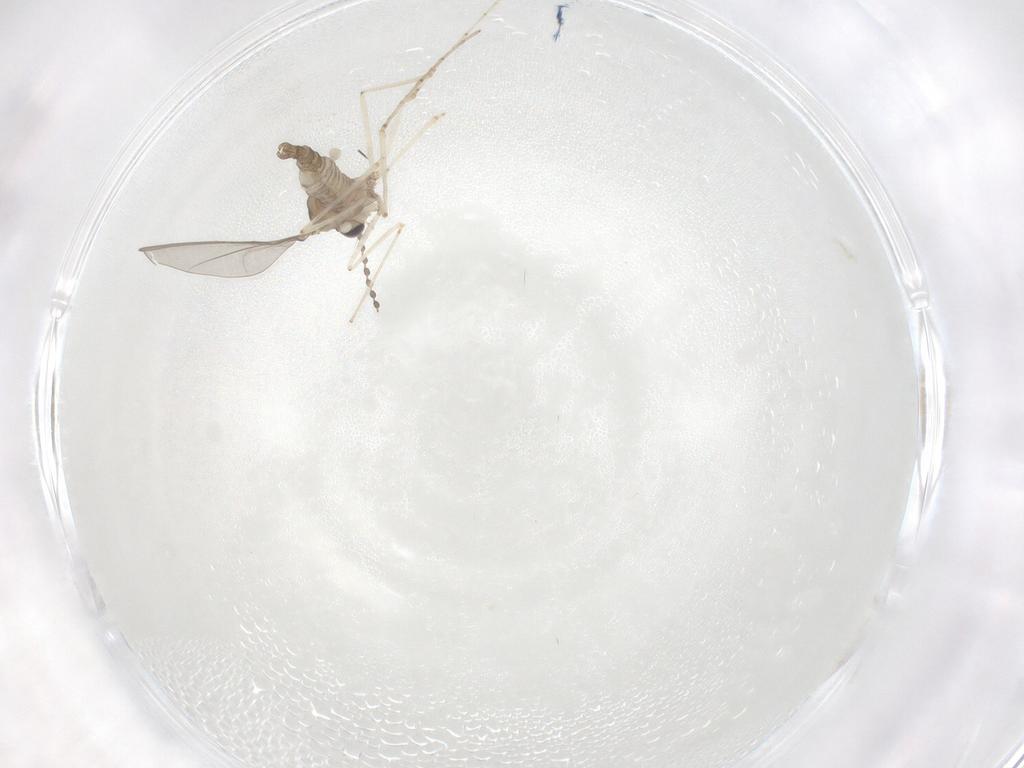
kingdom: Animalia
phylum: Arthropoda
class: Insecta
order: Diptera
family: Cecidomyiidae
